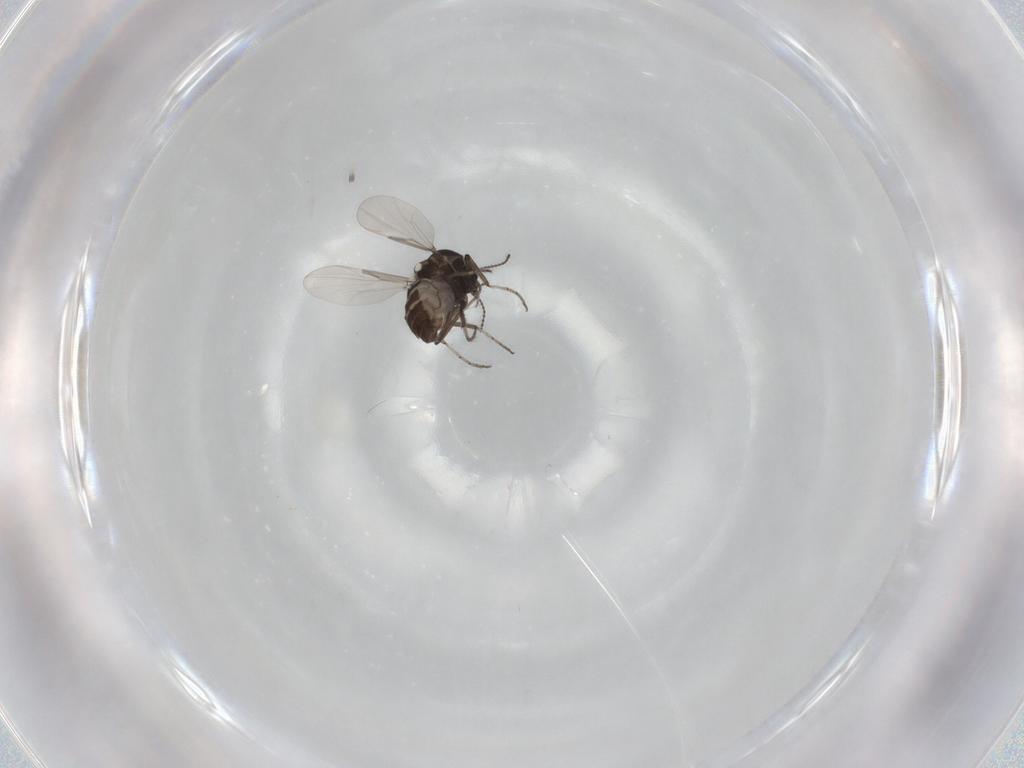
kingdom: Animalia
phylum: Arthropoda
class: Insecta
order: Diptera
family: Ceratopogonidae
